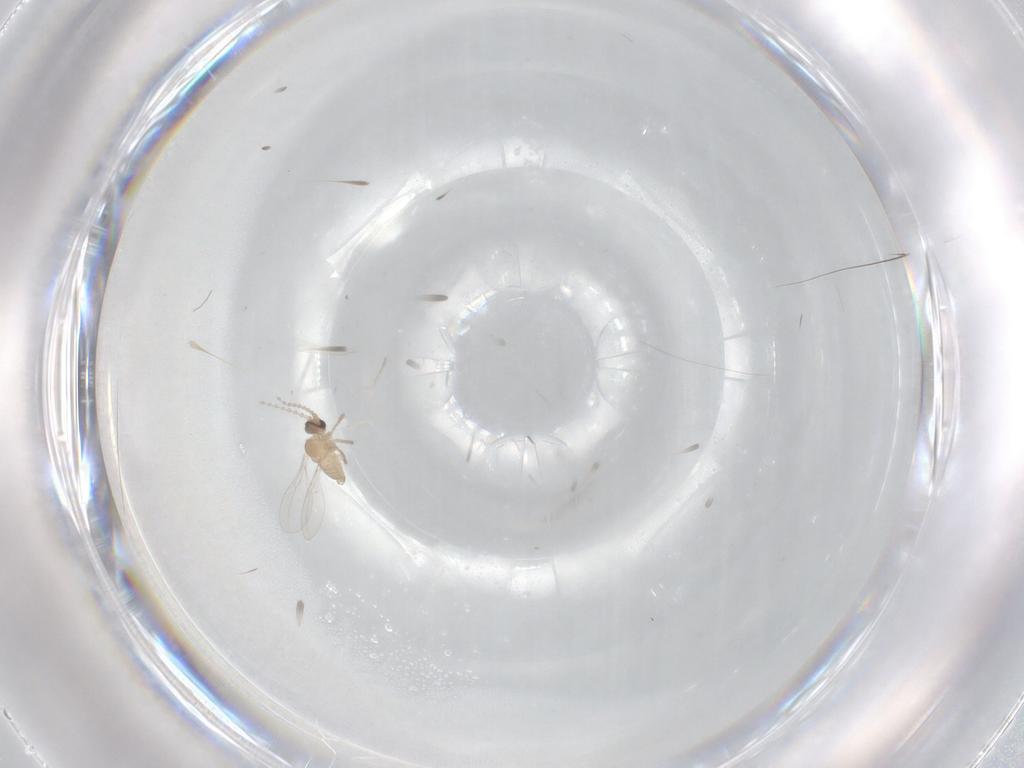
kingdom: Animalia
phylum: Arthropoda
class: Insecta
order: Diptera
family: Cecidomyiidae
